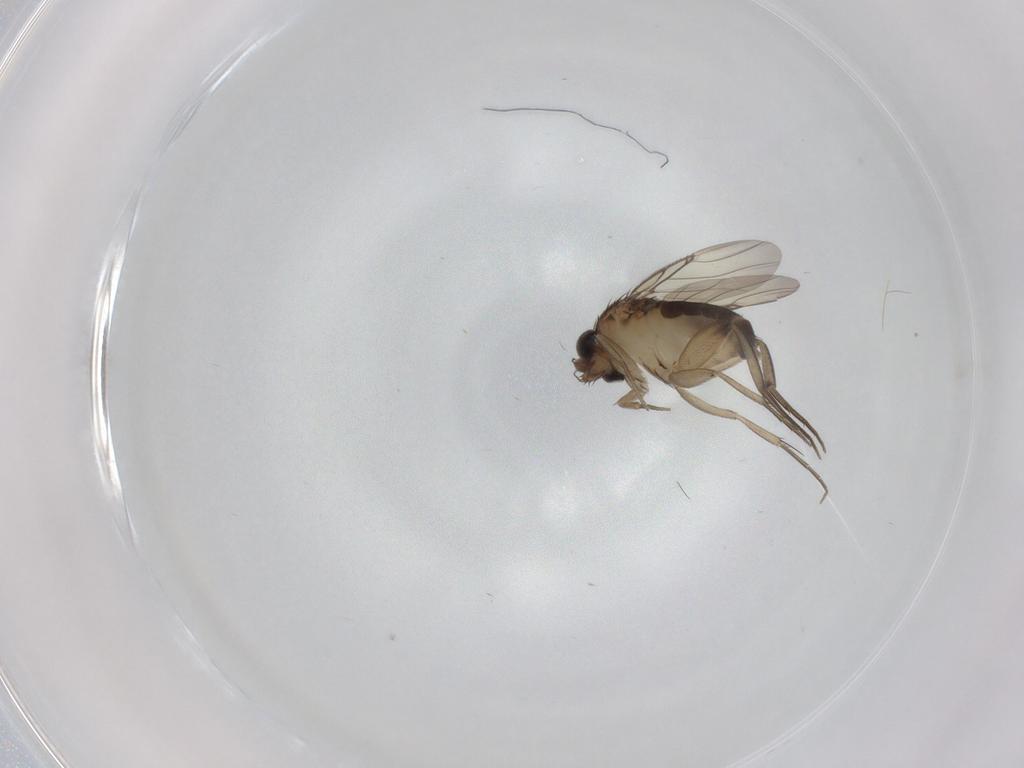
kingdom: Animalia
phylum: Arthropoda
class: Insecta
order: Diptera
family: Phoridae
